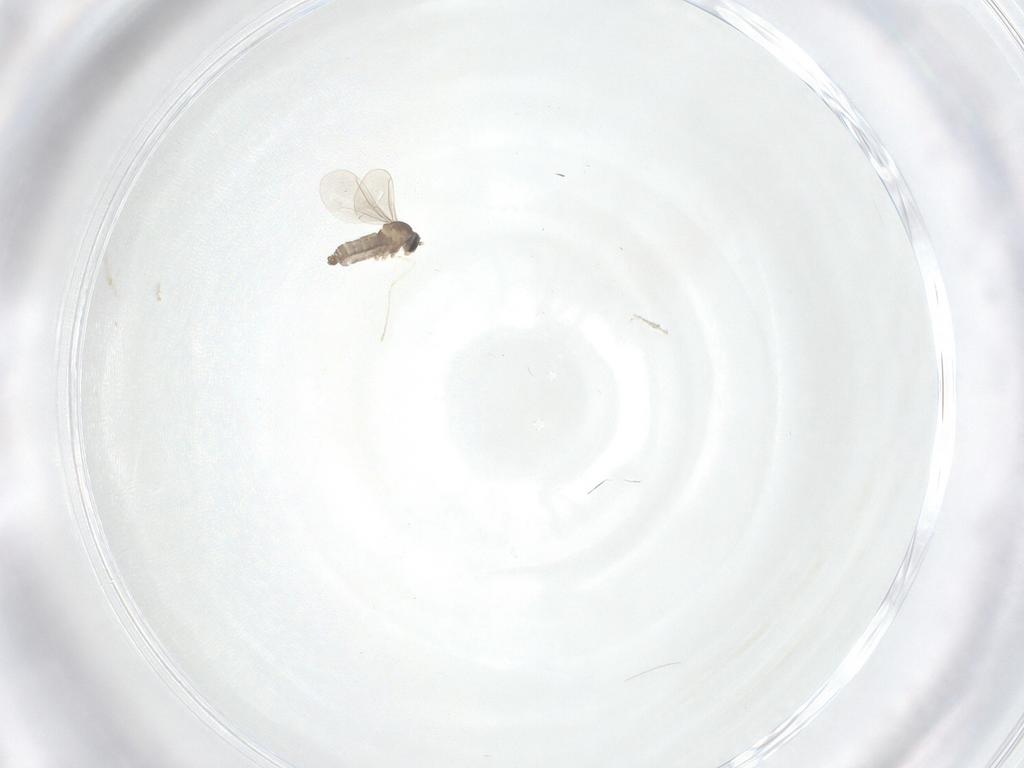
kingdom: Animalia
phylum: Arthropoda
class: Insecta
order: Diptera
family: Cecidomyiidae
